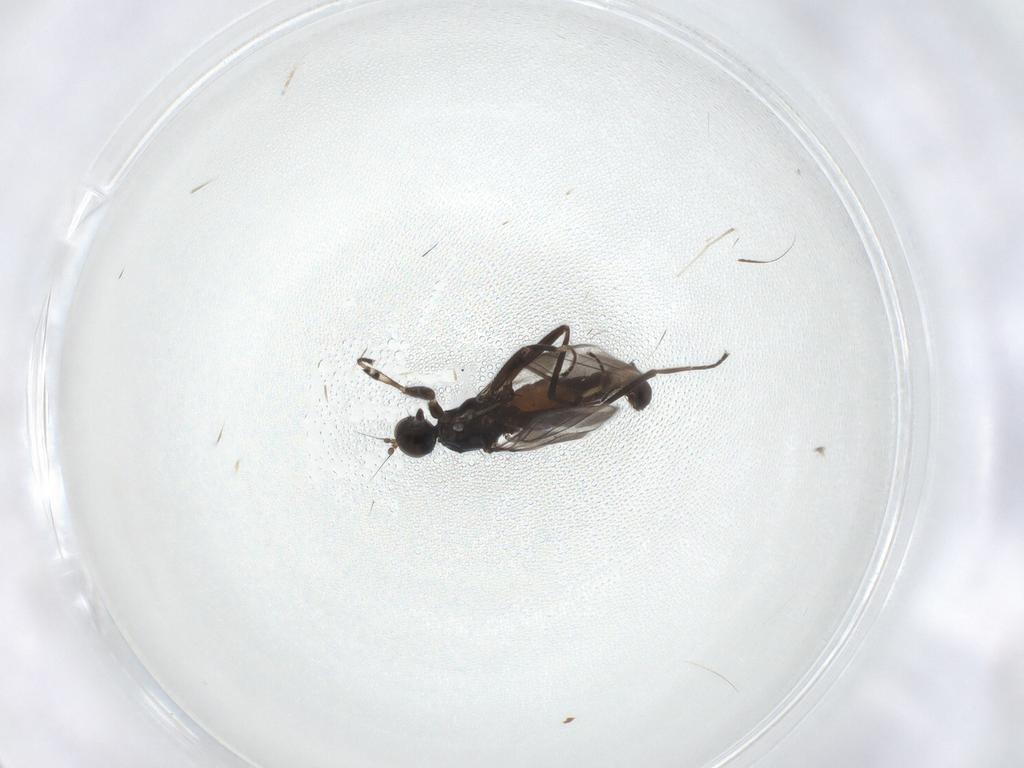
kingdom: Animalia
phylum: Arthropoda
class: Insecta
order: Diptera
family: Hybotidae
